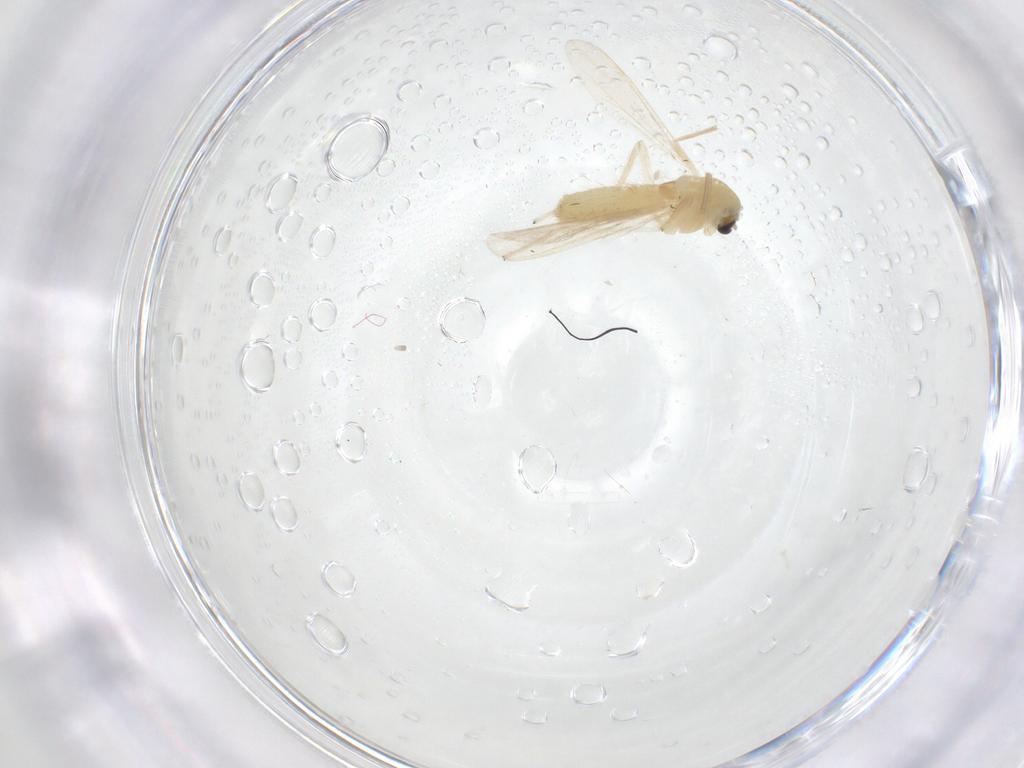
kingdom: Animalia
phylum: Arthropoda
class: Insecta
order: Diptera
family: Chironomidae
